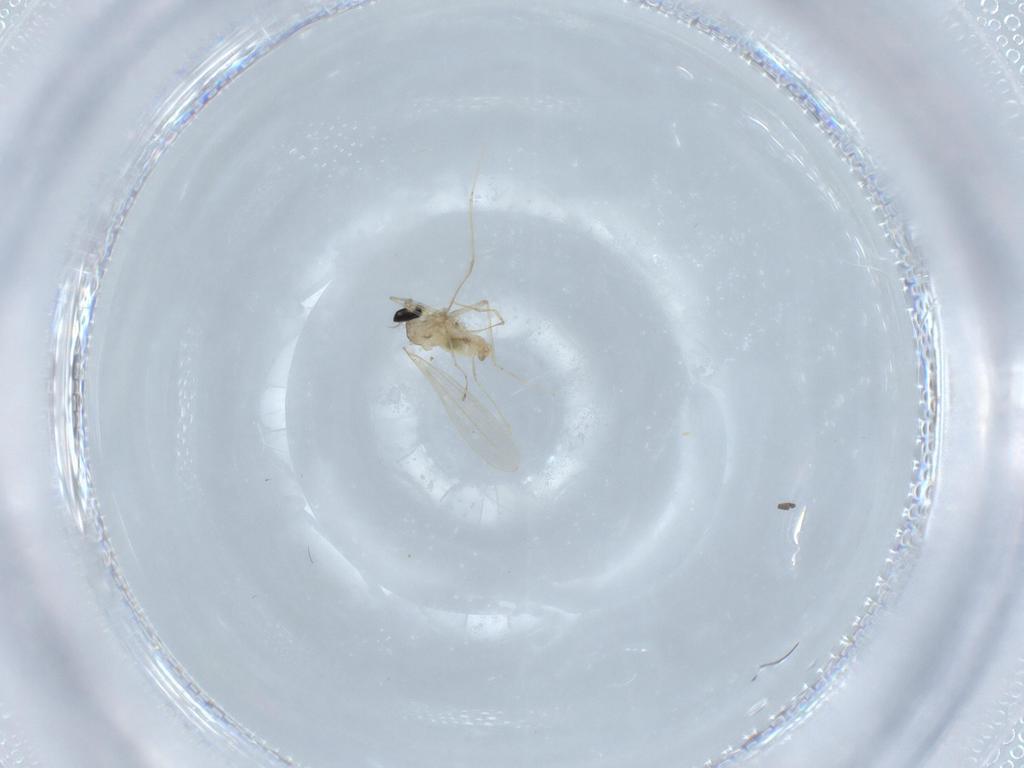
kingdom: Animalia
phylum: Arthropoda
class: Insecta
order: Diptera
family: Cecidomyiidae
